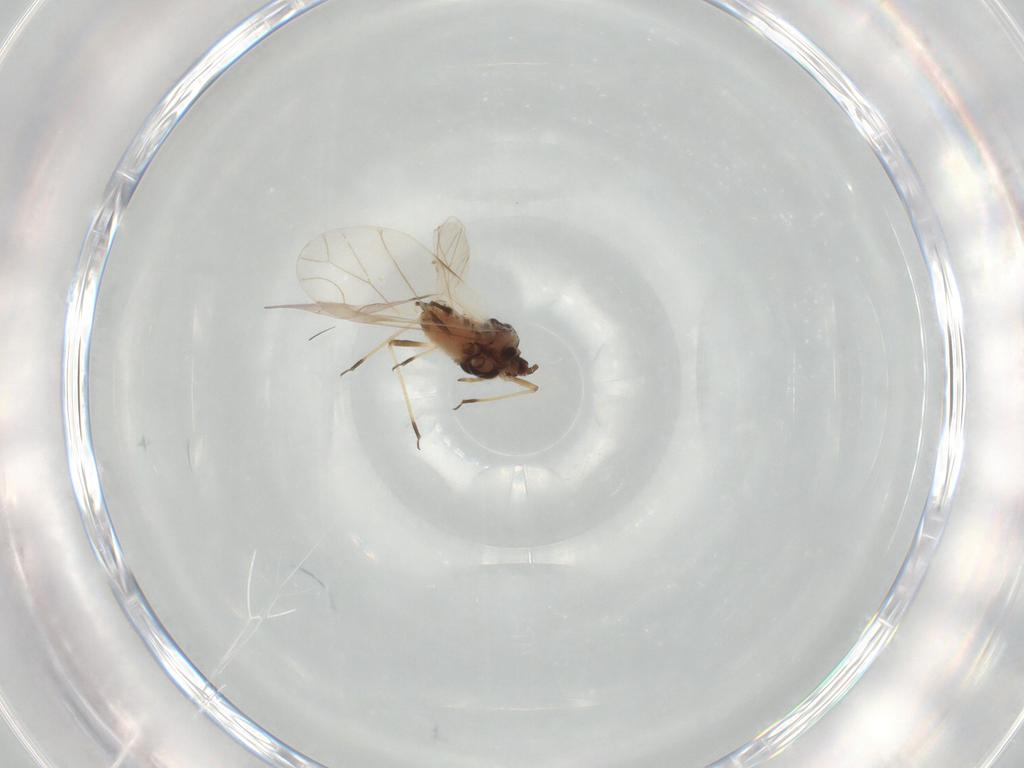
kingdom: Animalia
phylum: Arthropoda
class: Insecta
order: Hemiptera
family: Aphididae
